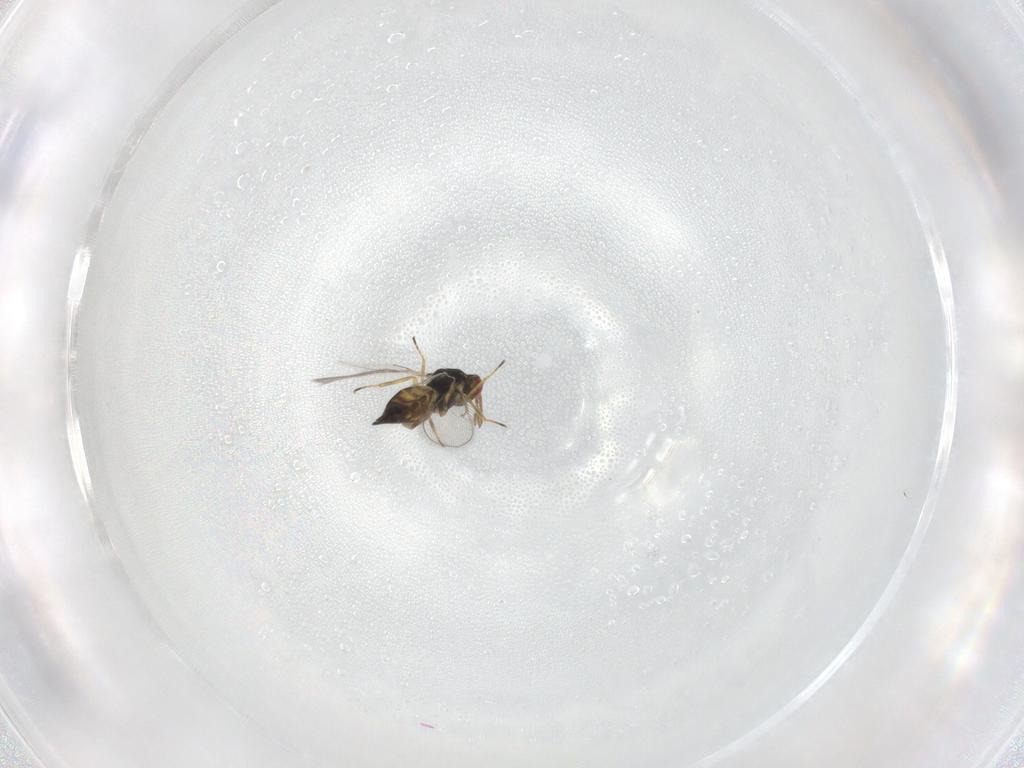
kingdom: Animalia
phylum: Arthropoda
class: Insecta
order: Hymenoptera
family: Eulophidae
